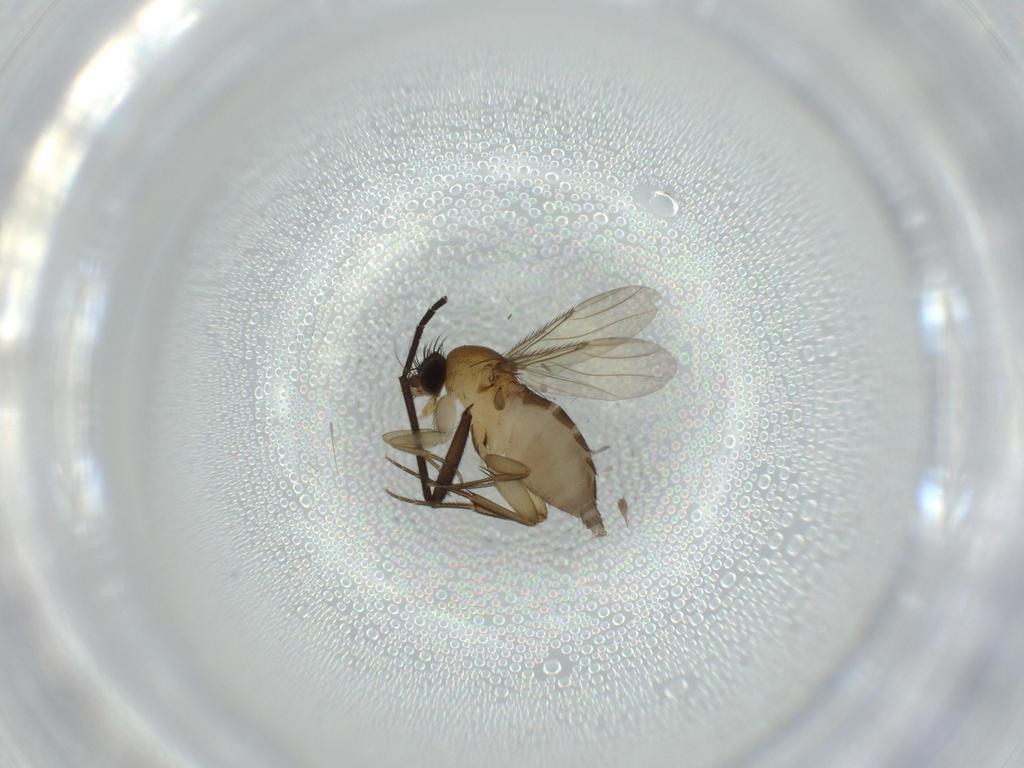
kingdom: Animalia
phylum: Arthropoda
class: Insecta
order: Diptera
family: Sciaridae
